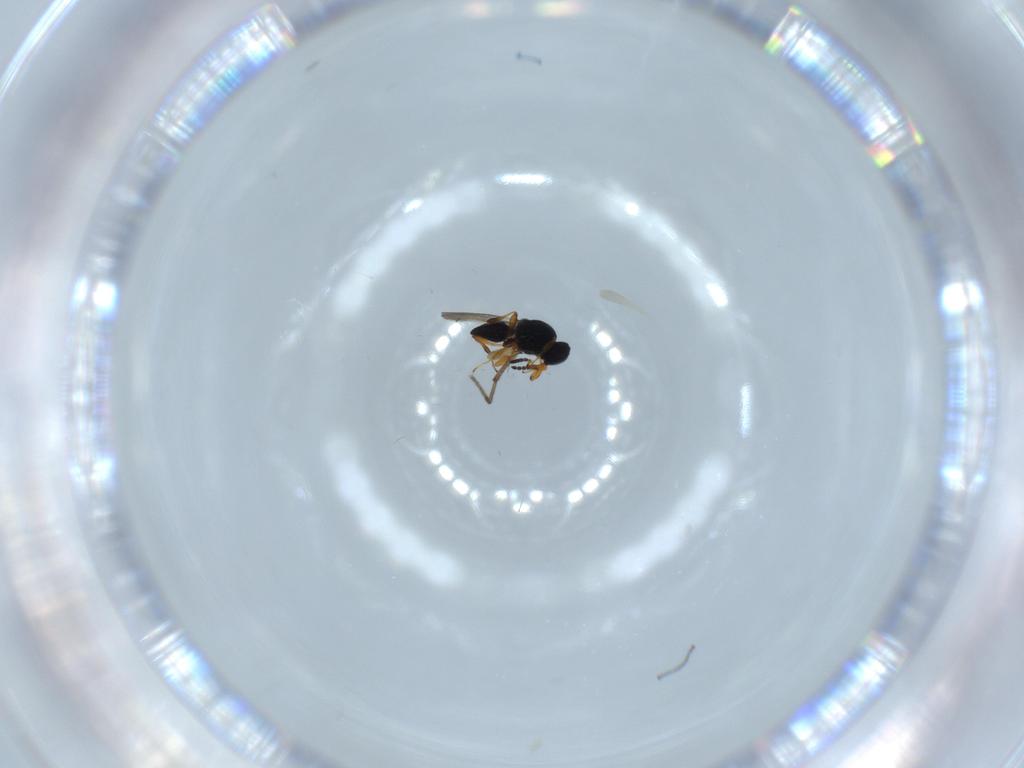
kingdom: Animalia
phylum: Arthropoda
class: Insecta
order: Hymenoptera
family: Platygastridae
